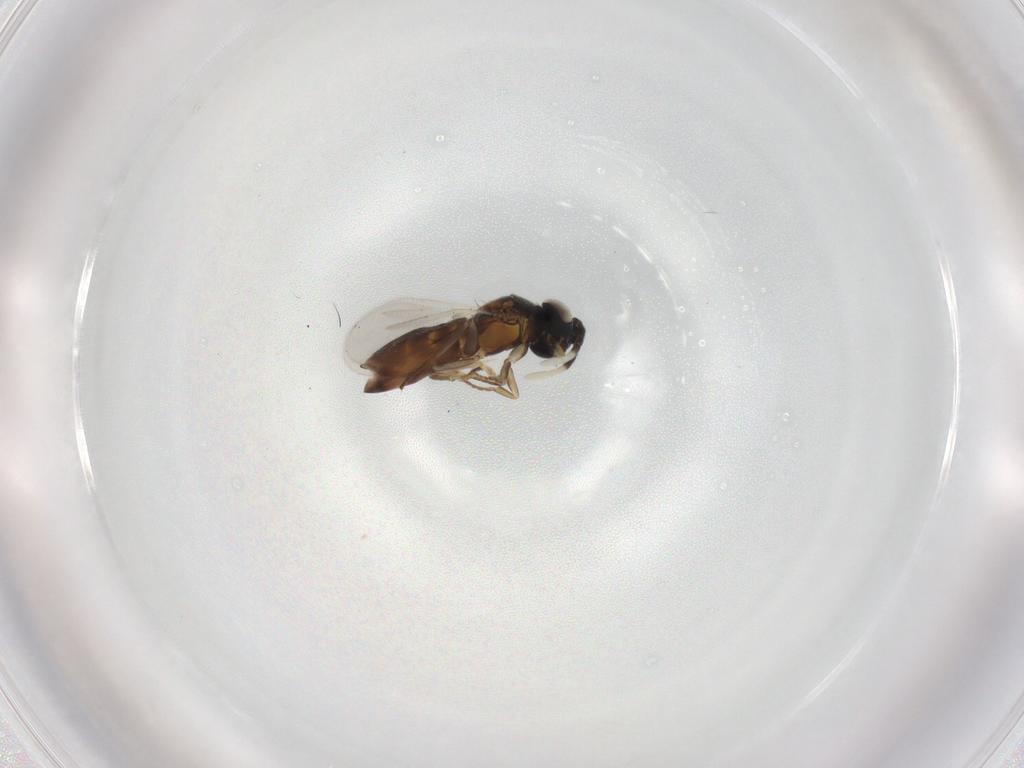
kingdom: Animalia
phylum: Arthropoda
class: Insecta
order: Hymenoptera
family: Encyrtidae
